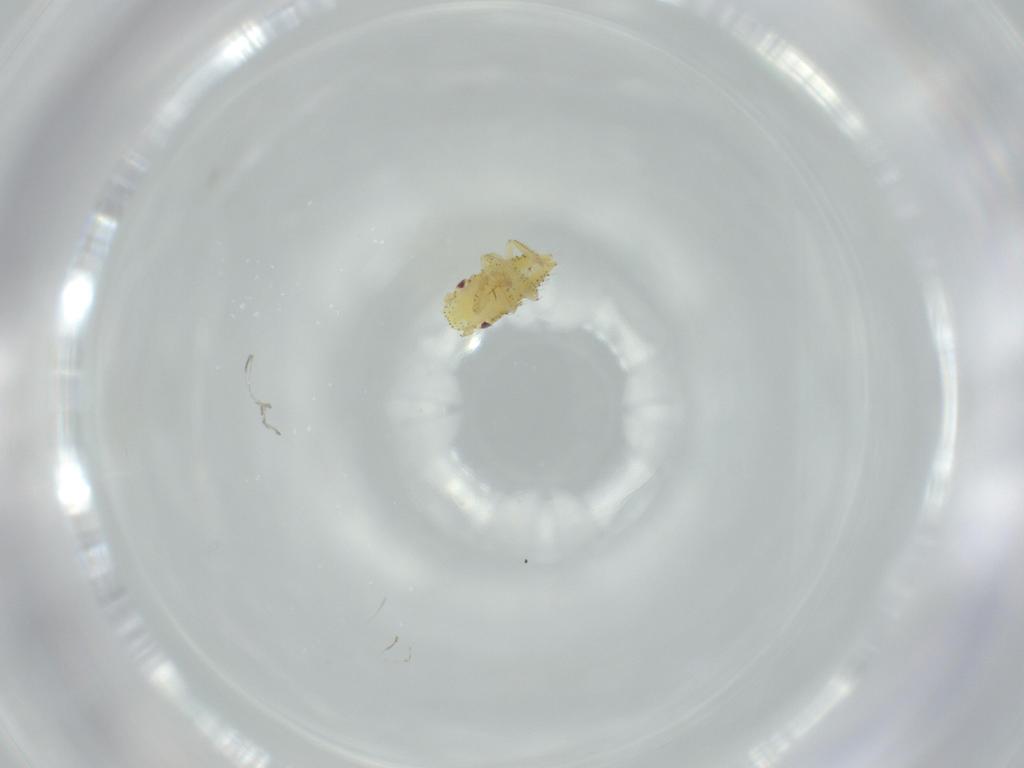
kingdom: Animalia
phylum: Arthropoda
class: Insecta
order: Hemiptera
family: Cicadellidae
